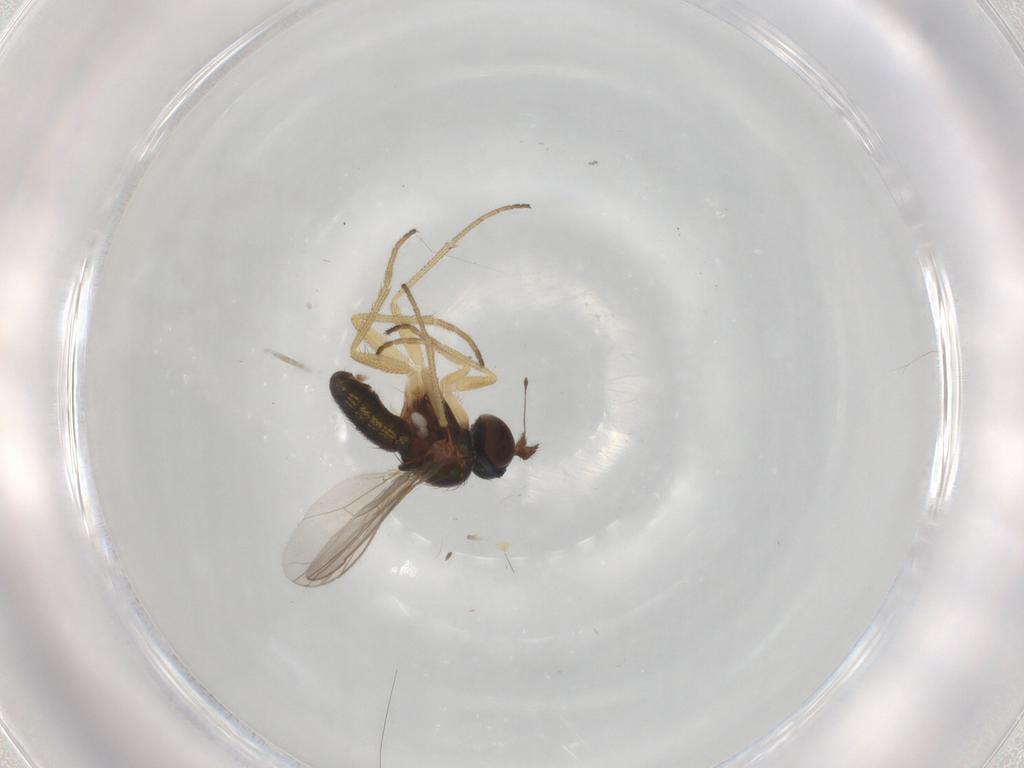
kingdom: Animalia
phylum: Arthropoda
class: Insecta
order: Diptera
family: Dolichopodidae
